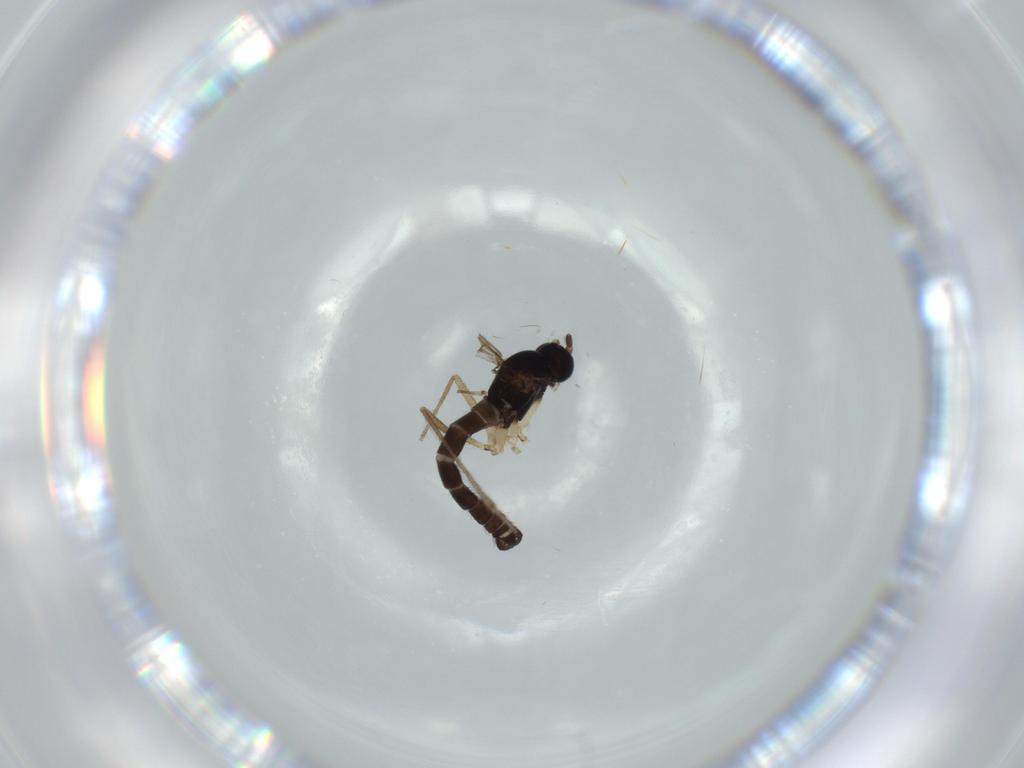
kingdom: Animalia
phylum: Arthropoda
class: Insecta
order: Diptera
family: Sciaridae
